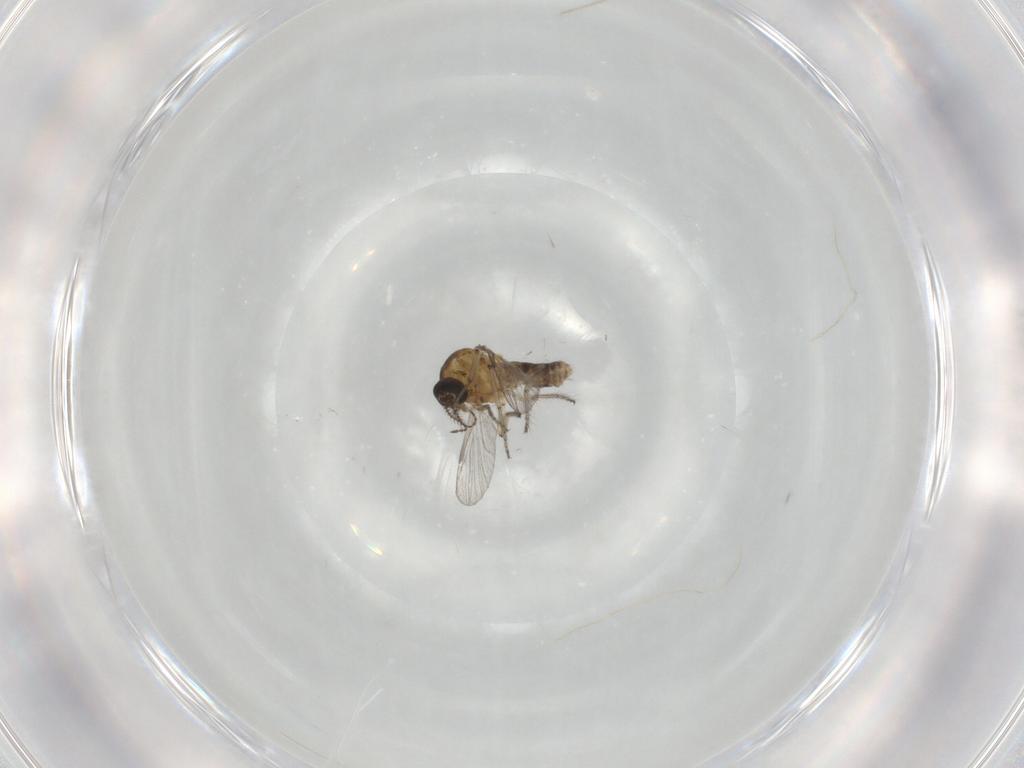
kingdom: Animalia
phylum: Arthropoda
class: Insecta
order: Diptera
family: Ceratopogonidae
